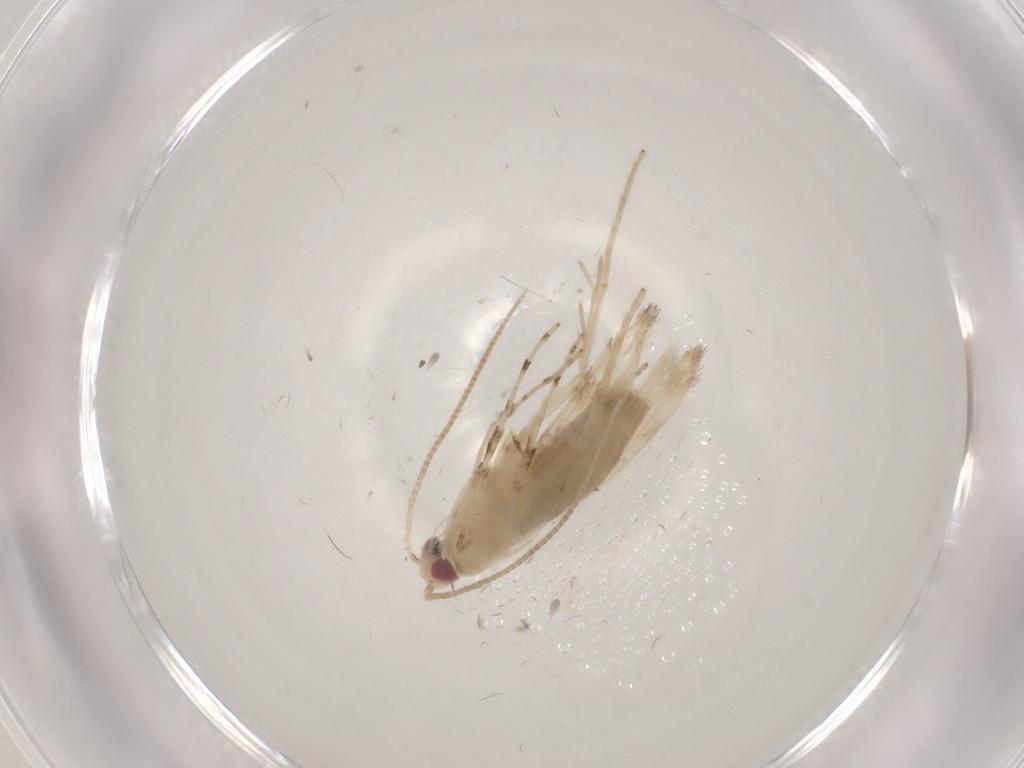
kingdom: Animalia
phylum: Arthropoda
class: Insecta
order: Lepidoptera
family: Gracillariidae
